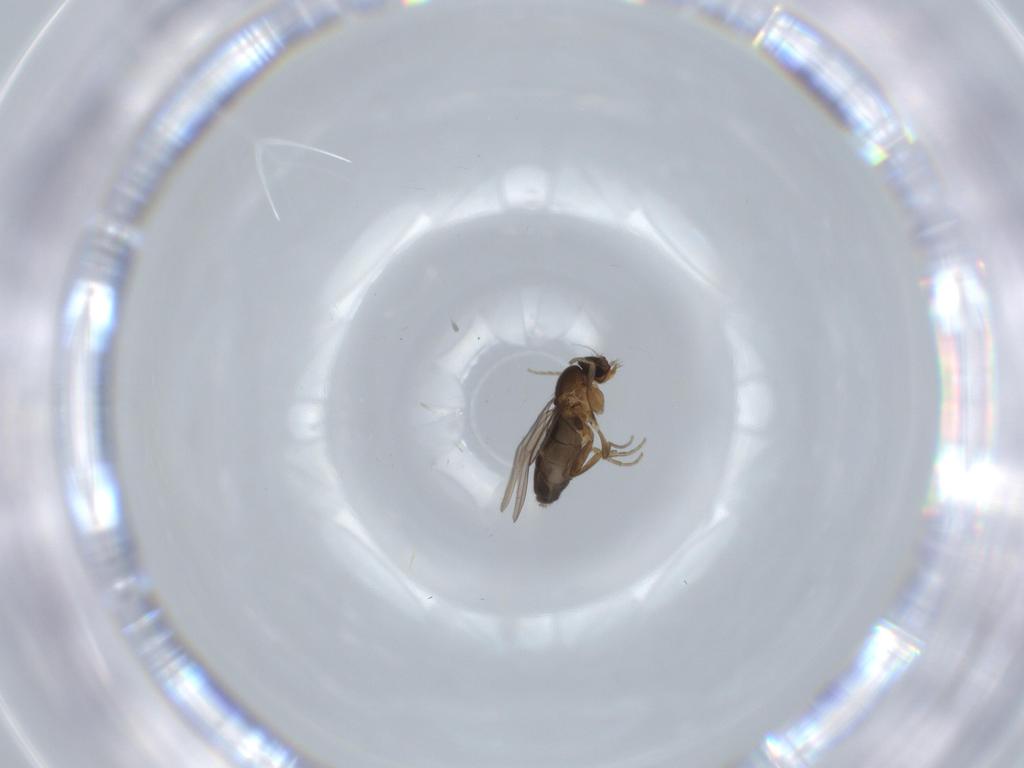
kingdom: Animalia
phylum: Arthropoda
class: Insecta
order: Diptera
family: Phoridae
